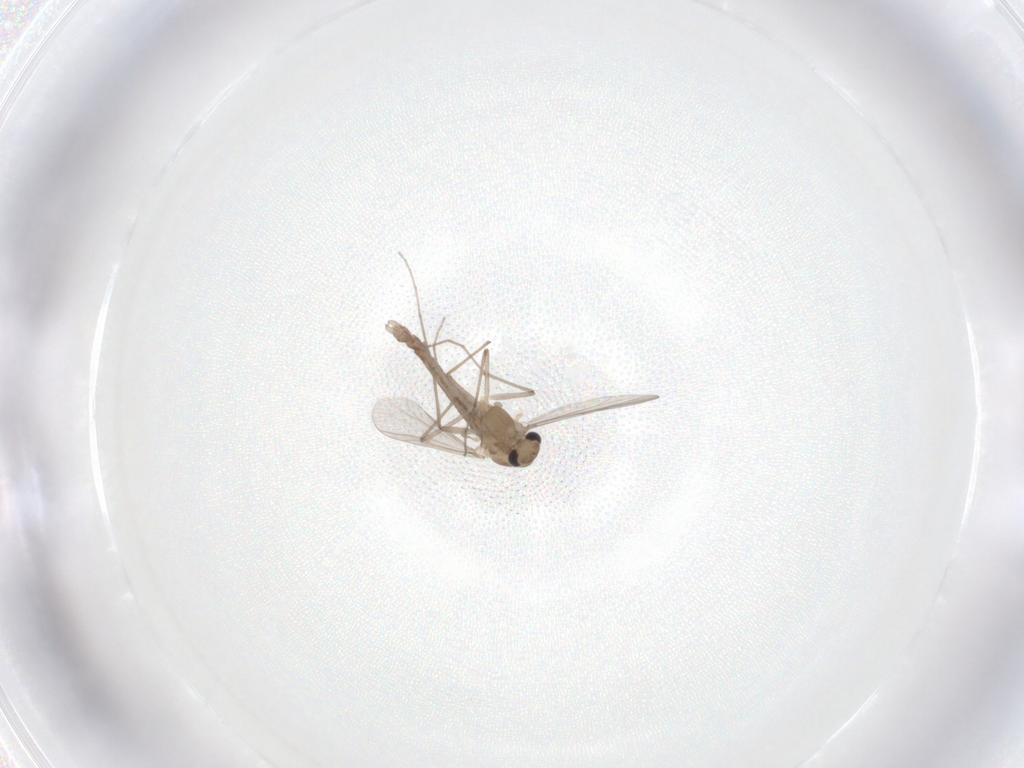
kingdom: Animalia
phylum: Arthropoda
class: Insecta
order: Diptera
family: Chironomidae
